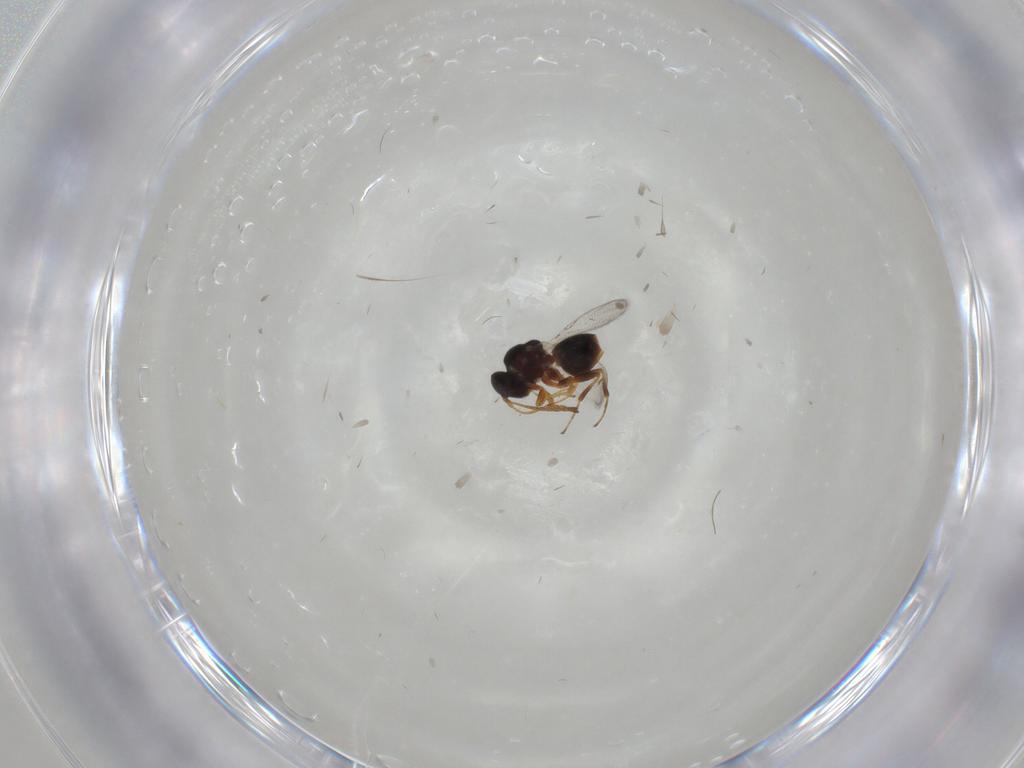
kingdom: Animalia
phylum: Arthropoda
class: Insecta
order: Hymenoptera
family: Figitidae
